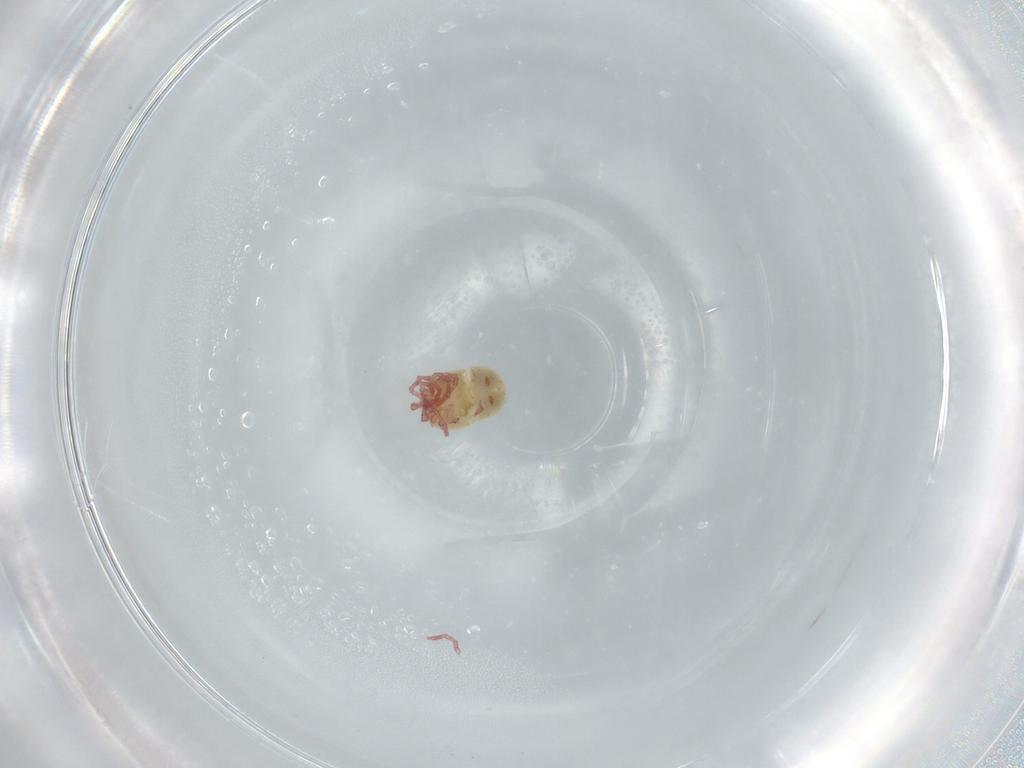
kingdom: Animalia
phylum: Arthropoda
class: Arachnida
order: Trombidiformes
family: Pionidae
